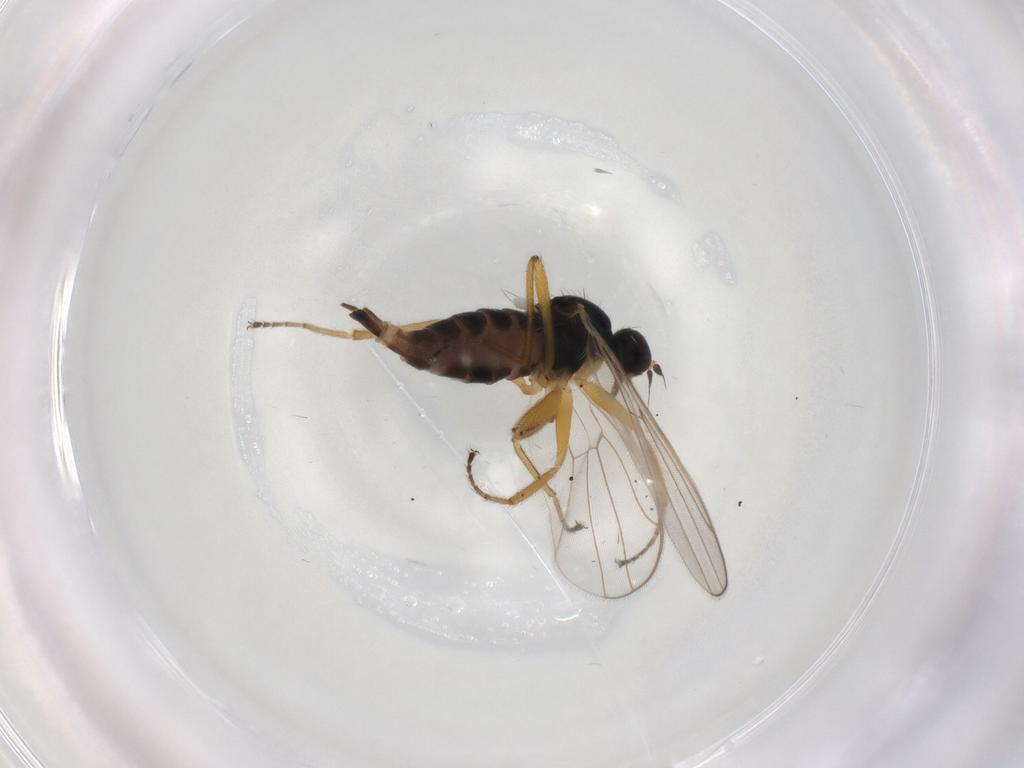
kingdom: Animalia
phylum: Arthropoda
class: Insecta
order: Diptera
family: Hybotidae
